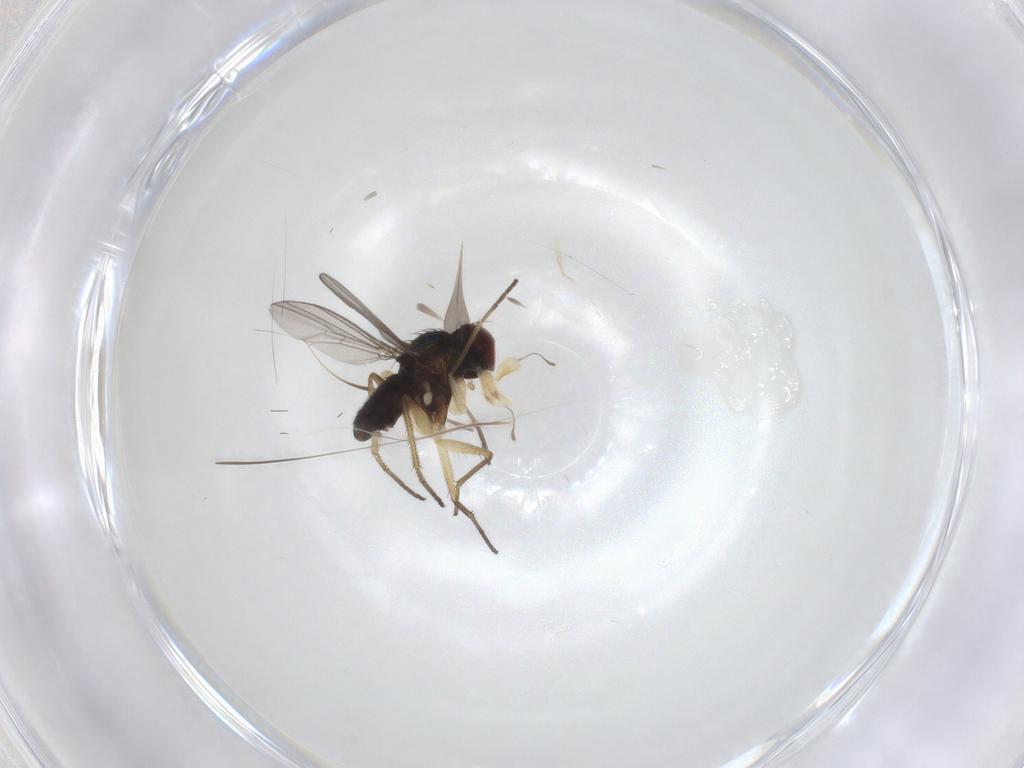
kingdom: Animalia
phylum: Arthropoda
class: Insecta
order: Diptera
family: Dolichopodidae
